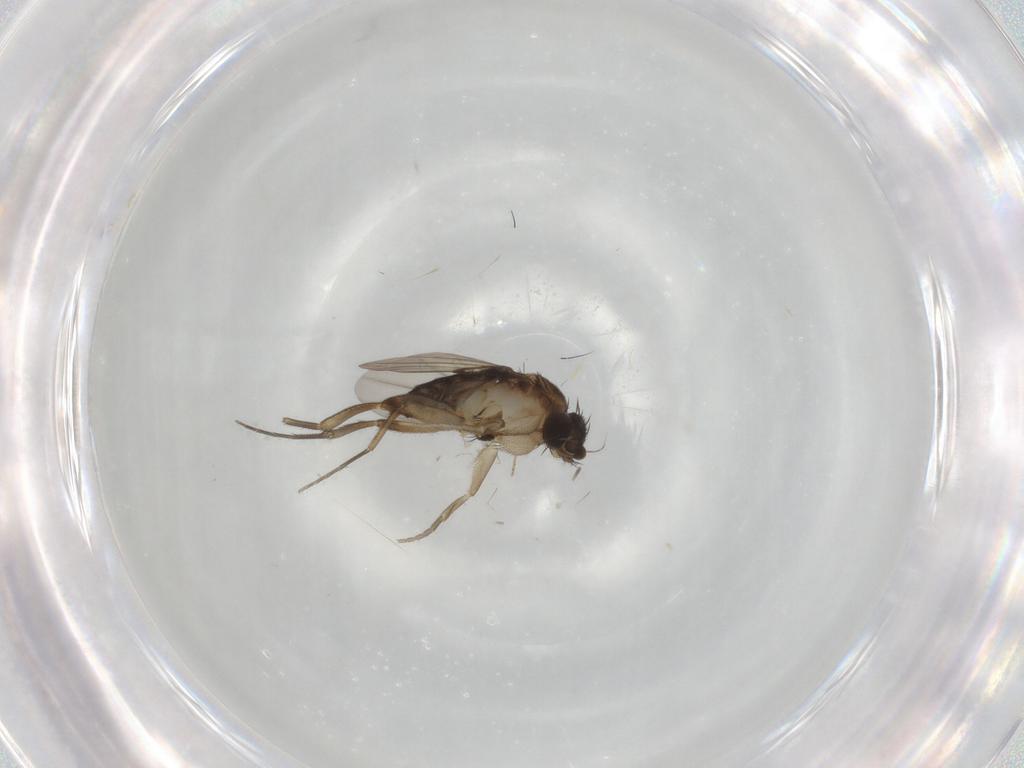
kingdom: Animalia
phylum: Arthropoda
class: Insecta
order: Diptera
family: Phoridae
